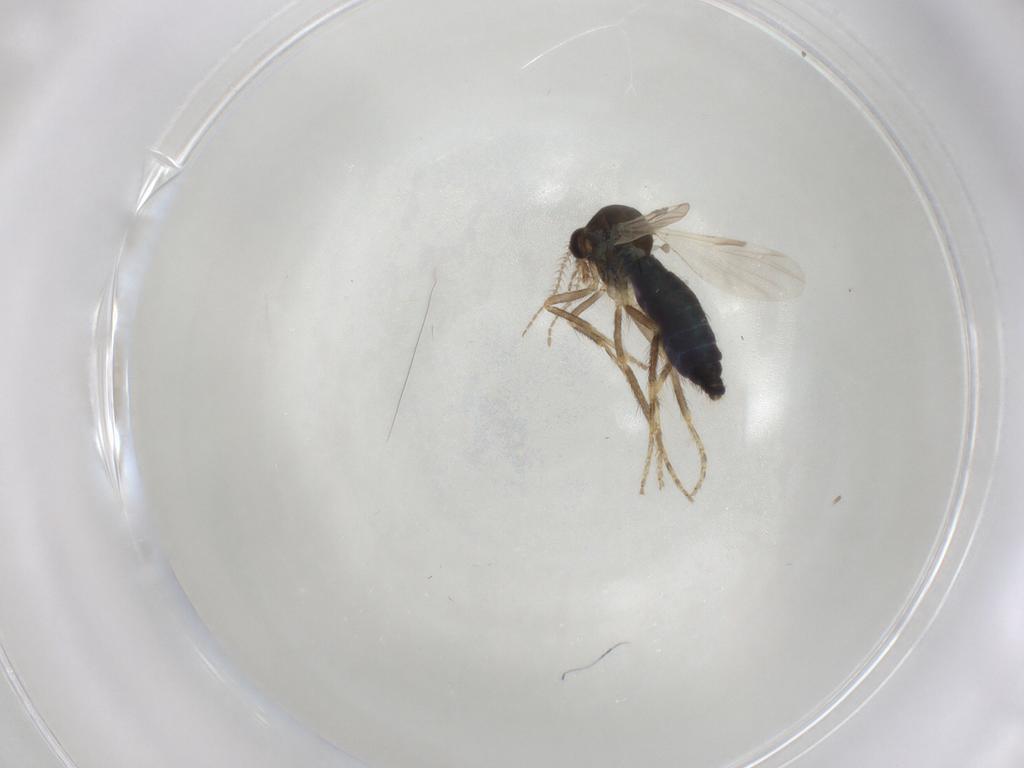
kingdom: Animalia
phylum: Arthropoda
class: Insecta
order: Diptera
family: Ceratopogonidae
